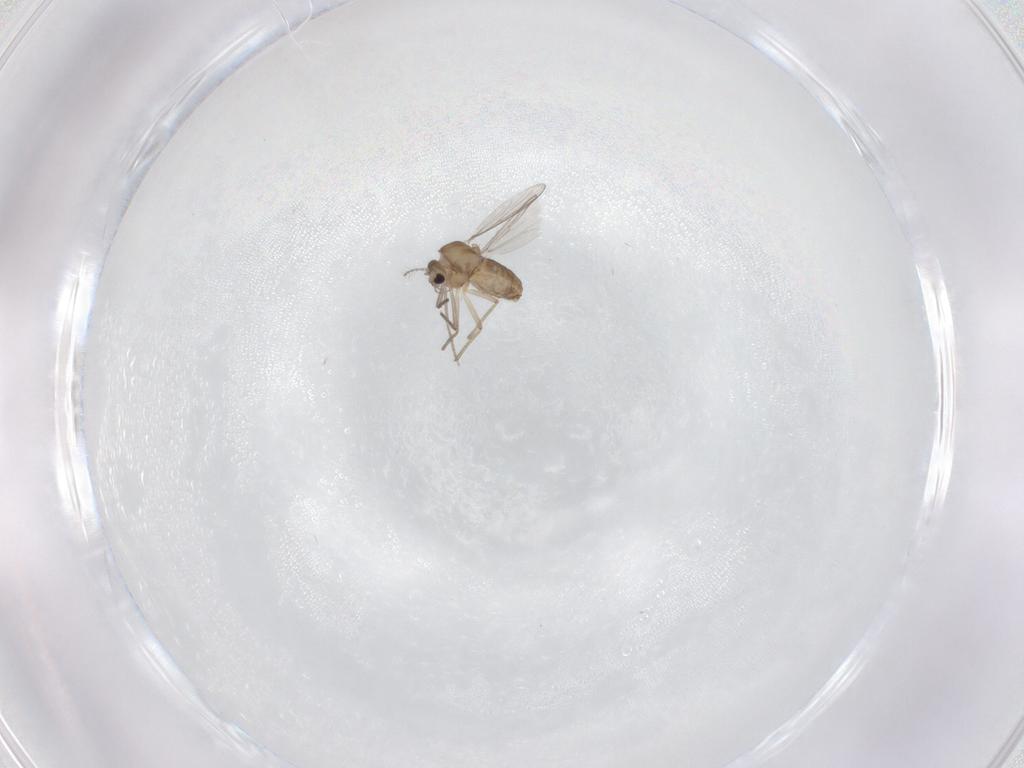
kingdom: Animalia
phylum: Arthropoda
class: Insecta
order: Diptera
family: Chironomidae
